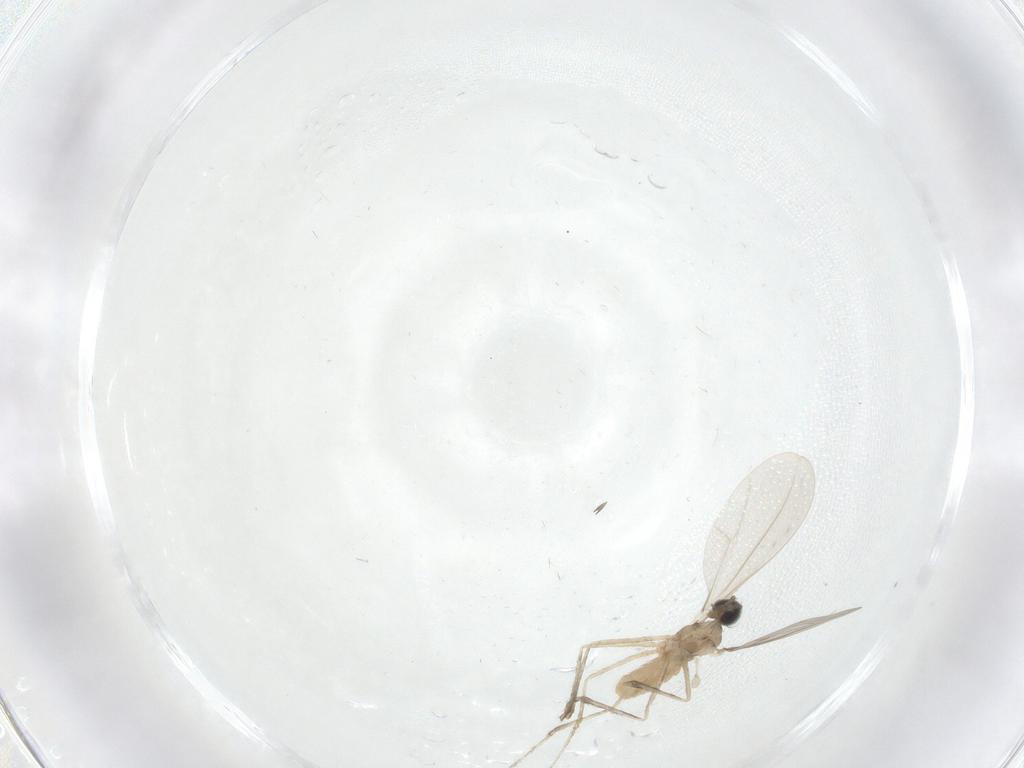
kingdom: Animalia
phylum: Arthropoda
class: Insecta
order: Diptera
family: Cecidomyiidae
